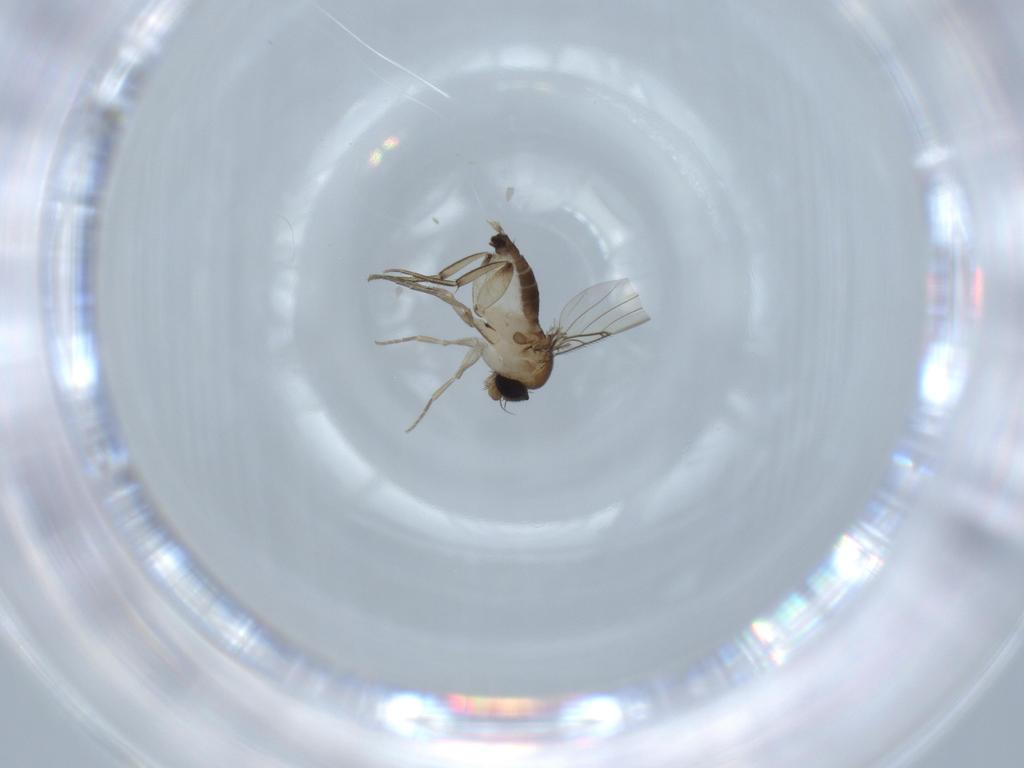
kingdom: Animalia
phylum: Arthropoda
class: Insecta
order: Diptera
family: Phoridae
